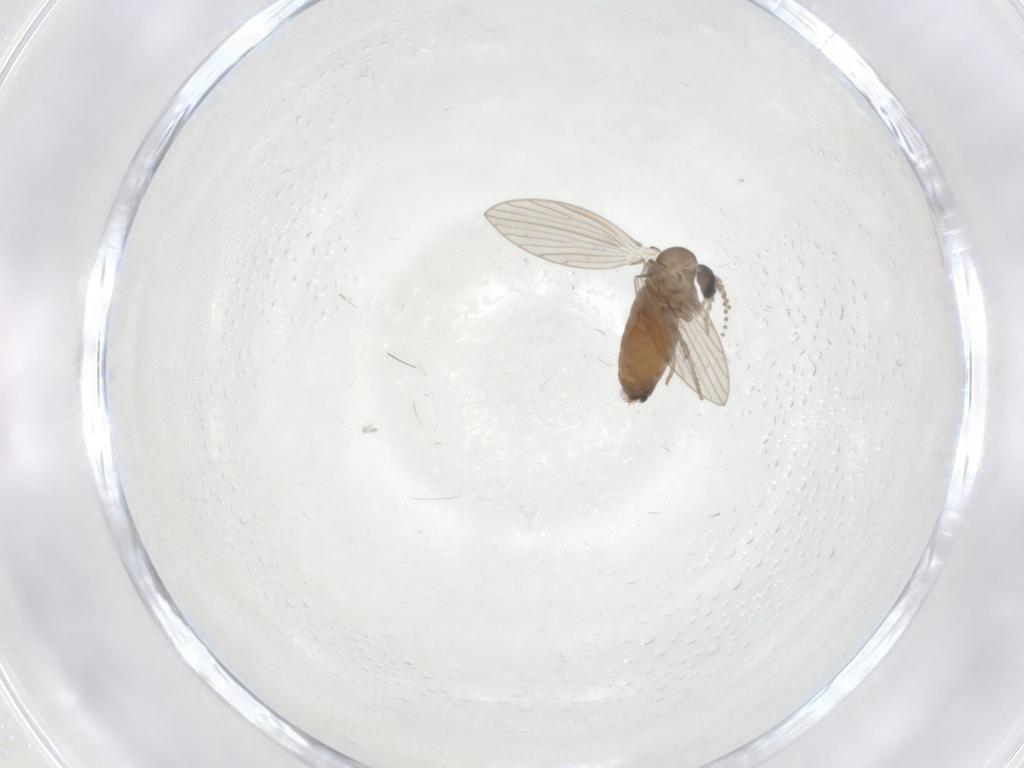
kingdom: Animalia
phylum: Arthropoda
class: Insecta
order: Diptera
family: Psychodidae
